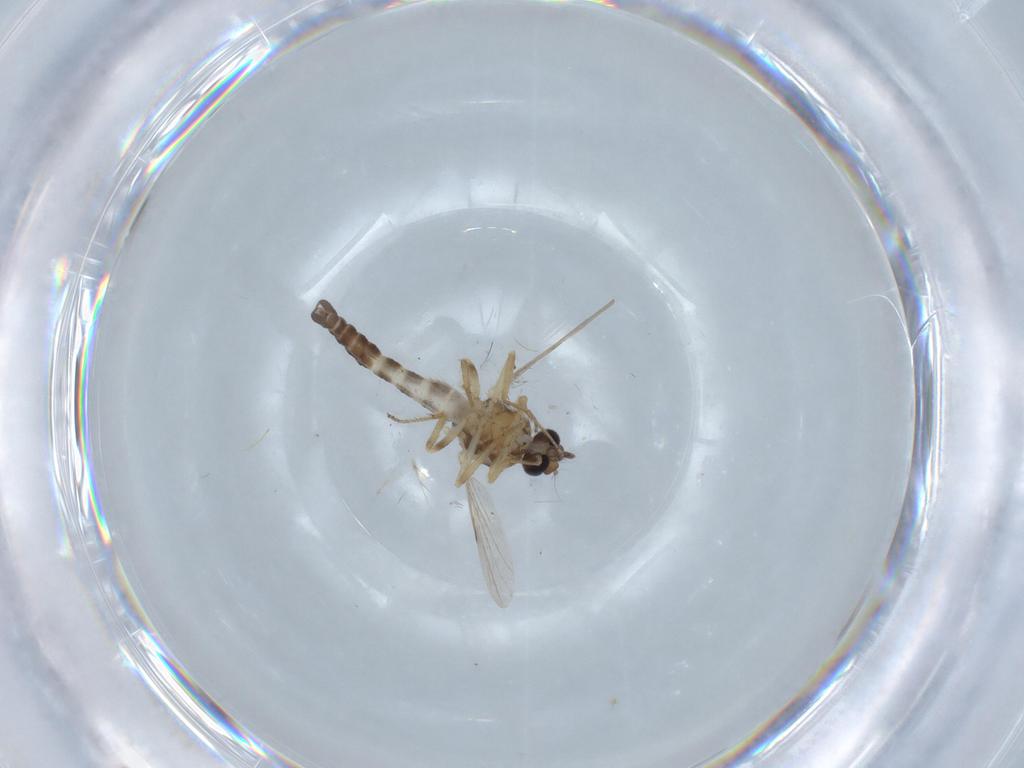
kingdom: Animalia
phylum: Arthropoda
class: Insecta
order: Diptera
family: Ceratopogonidae
